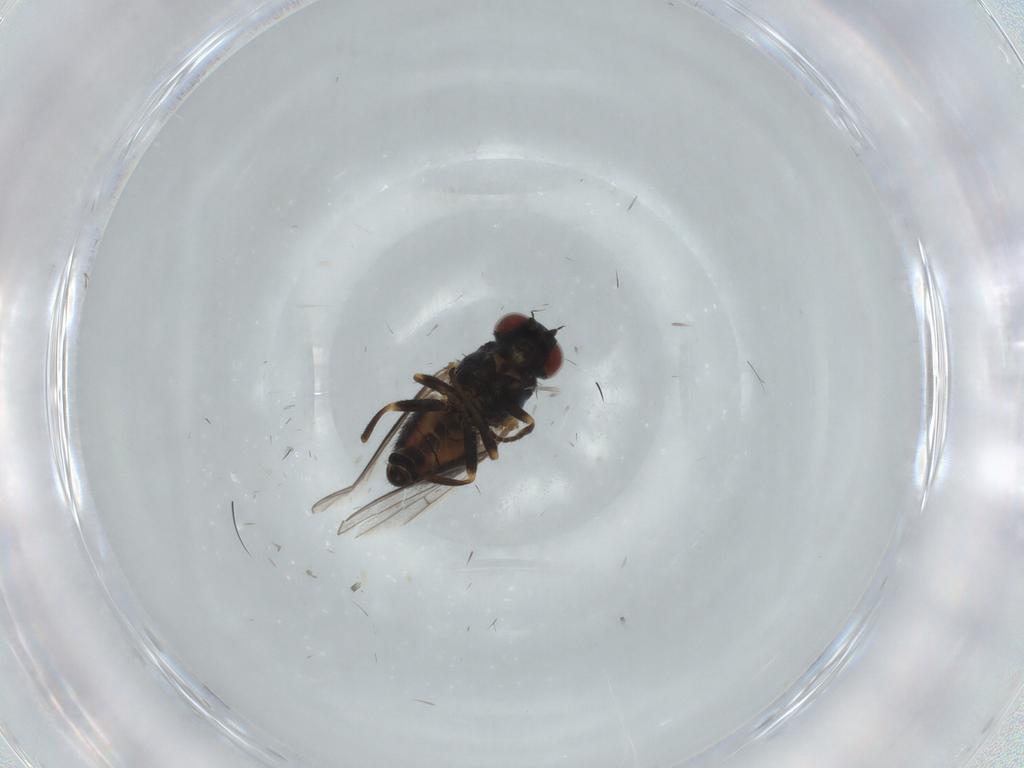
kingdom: Animalia
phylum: Arthropoda
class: Insecta
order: Diptera
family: Chamaemyiidae
